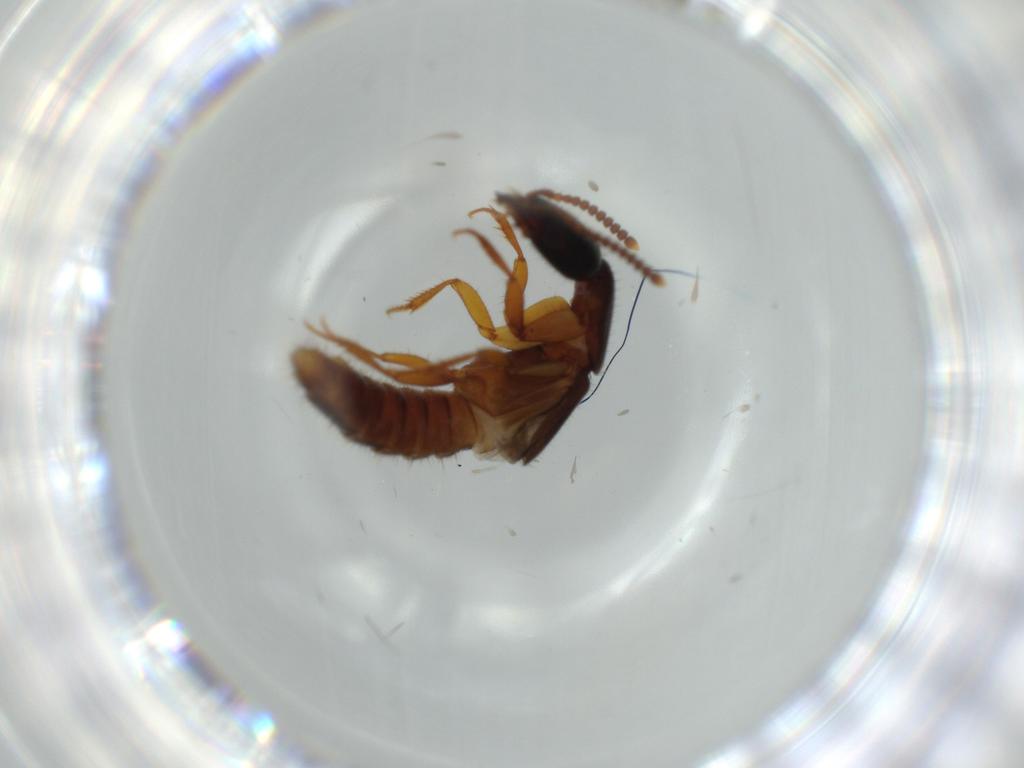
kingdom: Animalia
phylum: Arthropoda
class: Insecta
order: Coleoptera
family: Staphylinidae
